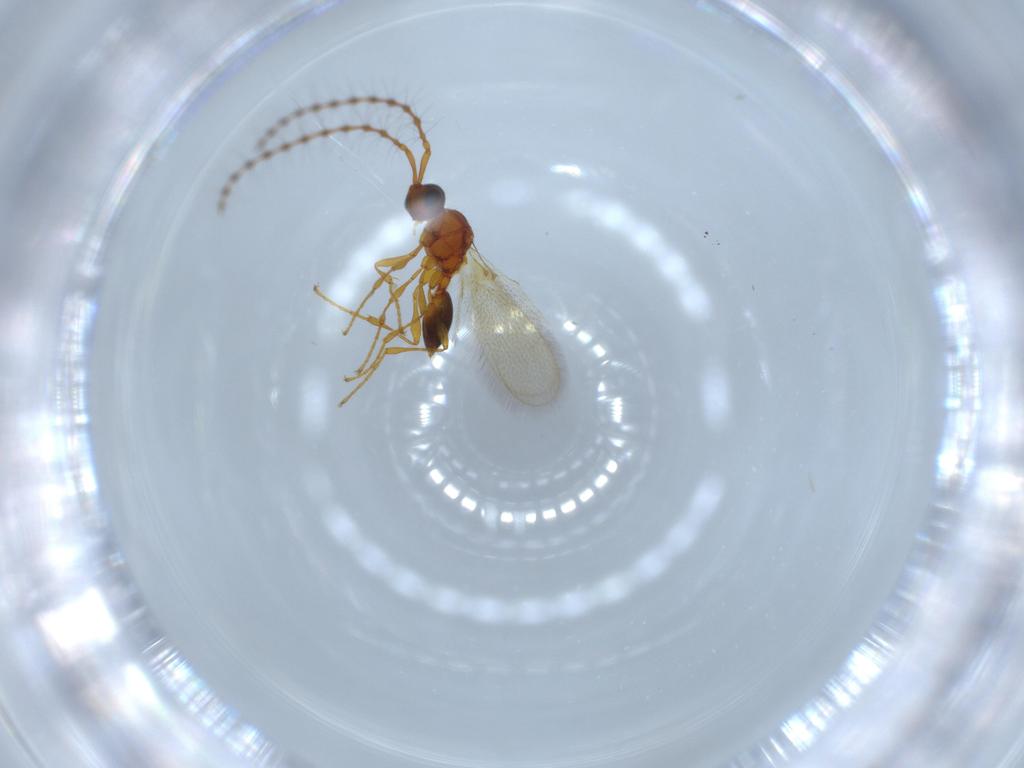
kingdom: Animalia
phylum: Arthropoda
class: Insecta
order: Hymenoptera
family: Diapriidae
